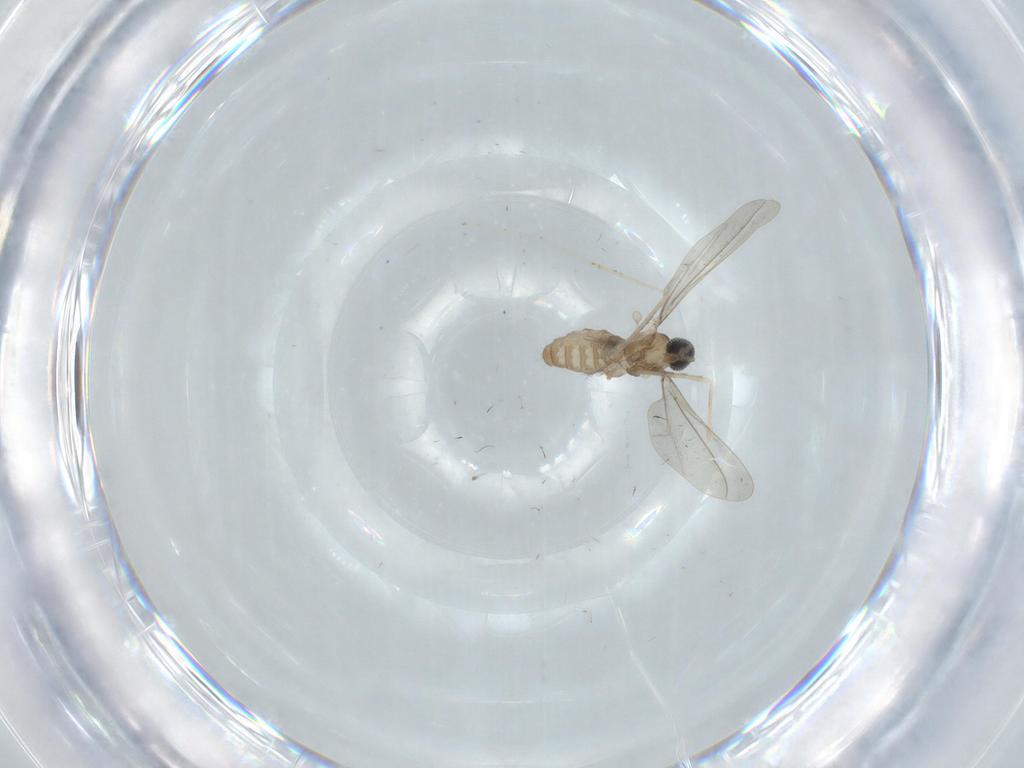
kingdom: Animalia
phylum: Arthropoda
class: Insecta
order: Diptera
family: Cecidomyiidae
